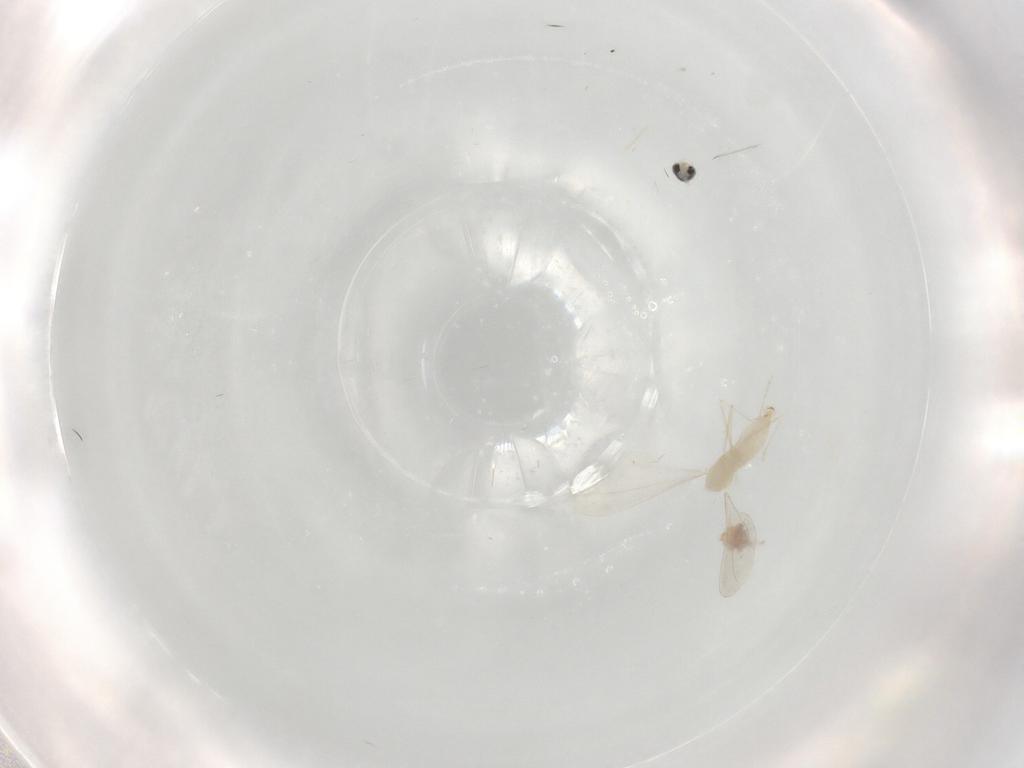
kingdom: Animalia
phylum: Arthropoda
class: Insecta
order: Diptera
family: Cecidomyiidae
